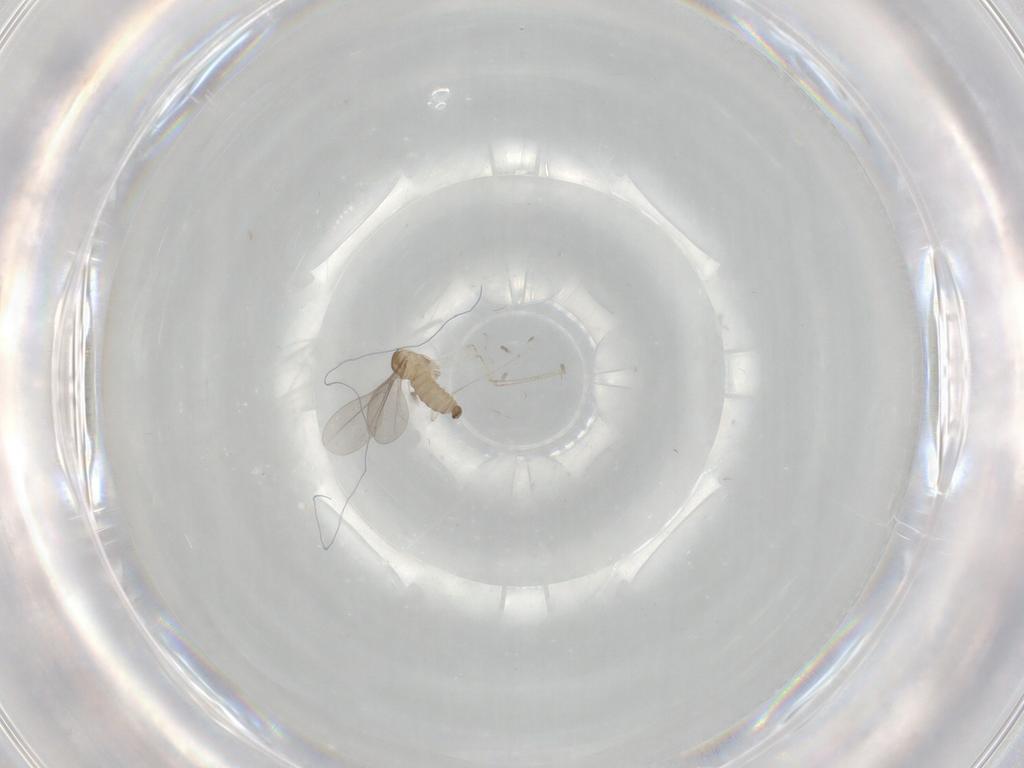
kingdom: Animalia
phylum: Arthropoda
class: Insecta
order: Diptera
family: Cecidomyiidae
